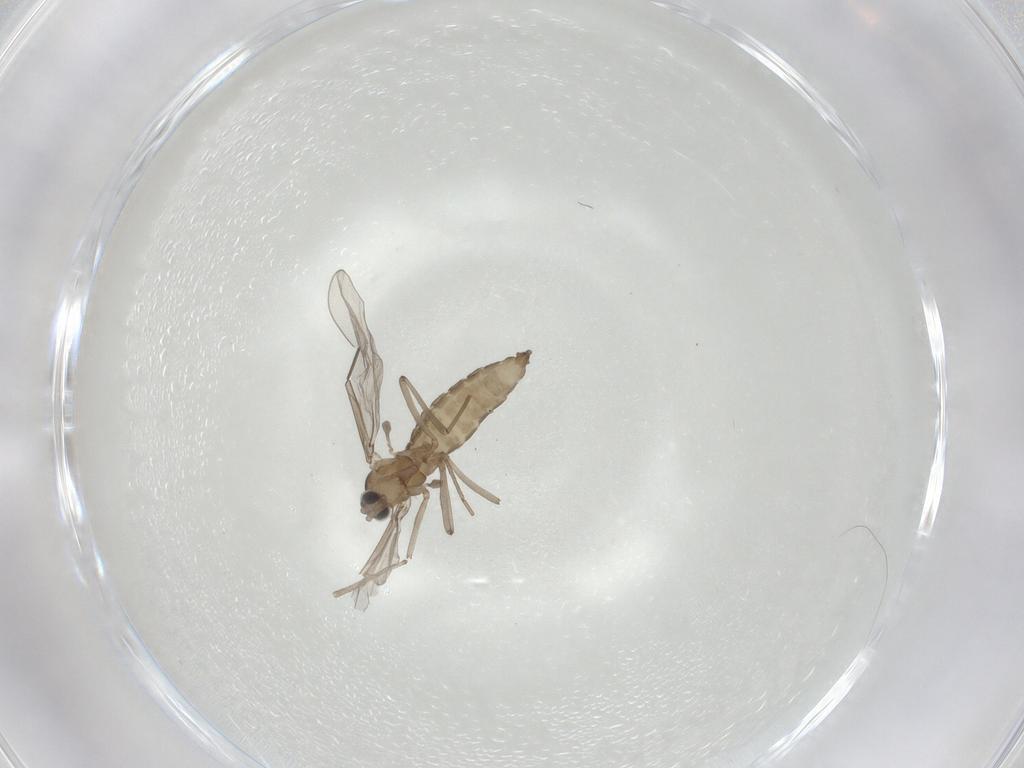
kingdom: Animalia
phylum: Arthropoda
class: Insecta
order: Diptera
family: Cecidomyiidae
